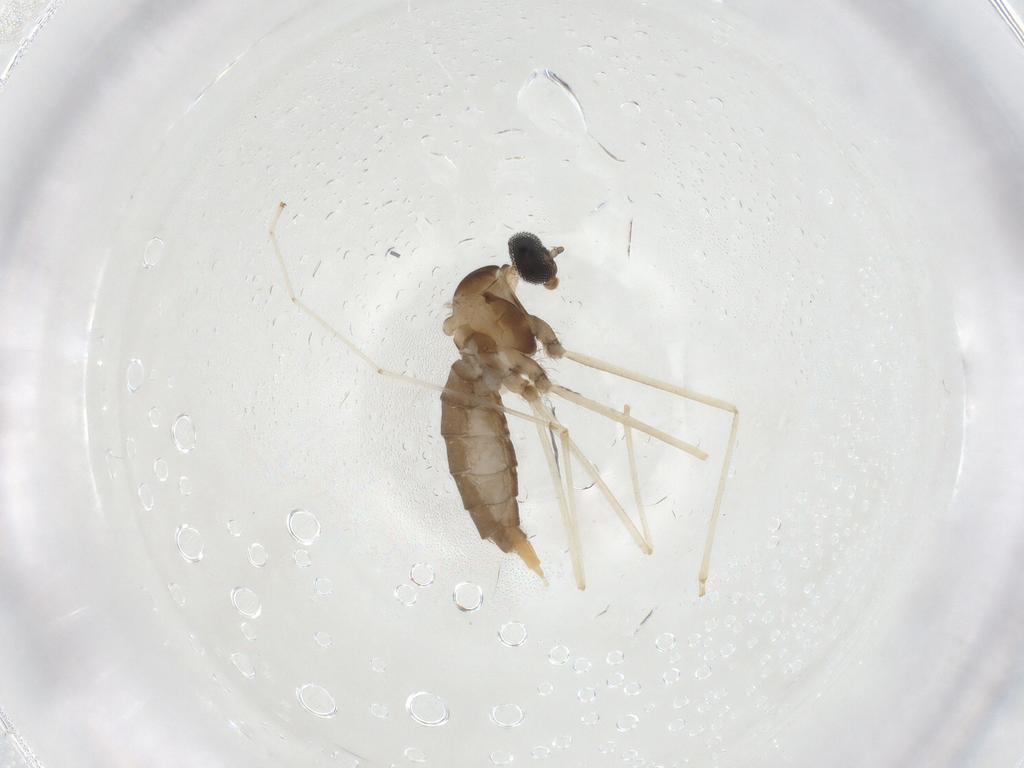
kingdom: Animalia
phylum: Arthropoda
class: Insecta
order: Diptera
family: Cecidomyiidae
